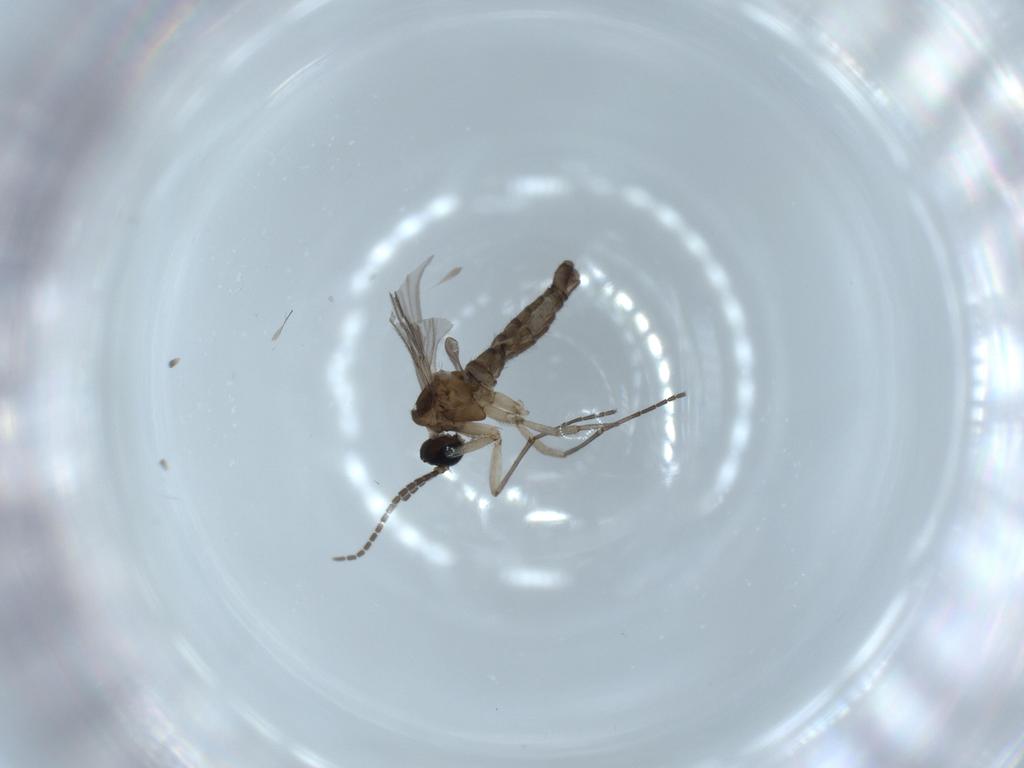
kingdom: Animalia
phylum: Arthropoda
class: Insecta
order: Diptera
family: Sciaridae
